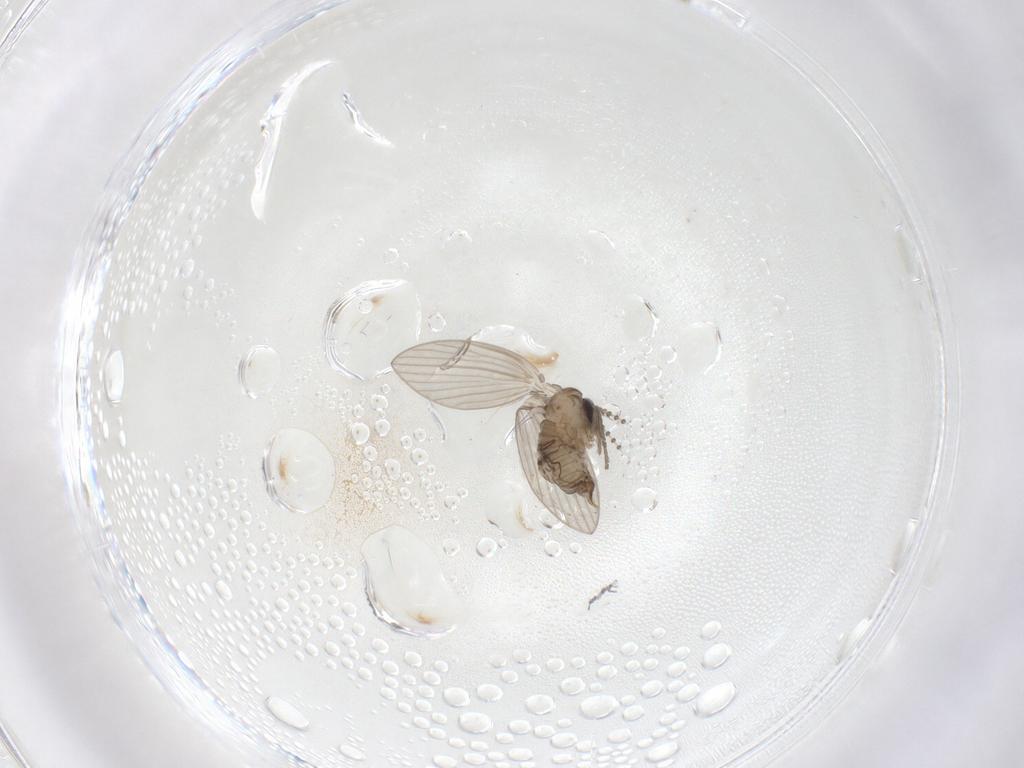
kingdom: Animalia
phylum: Arthropoda
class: Insecta
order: Diptera
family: Psychodidae
